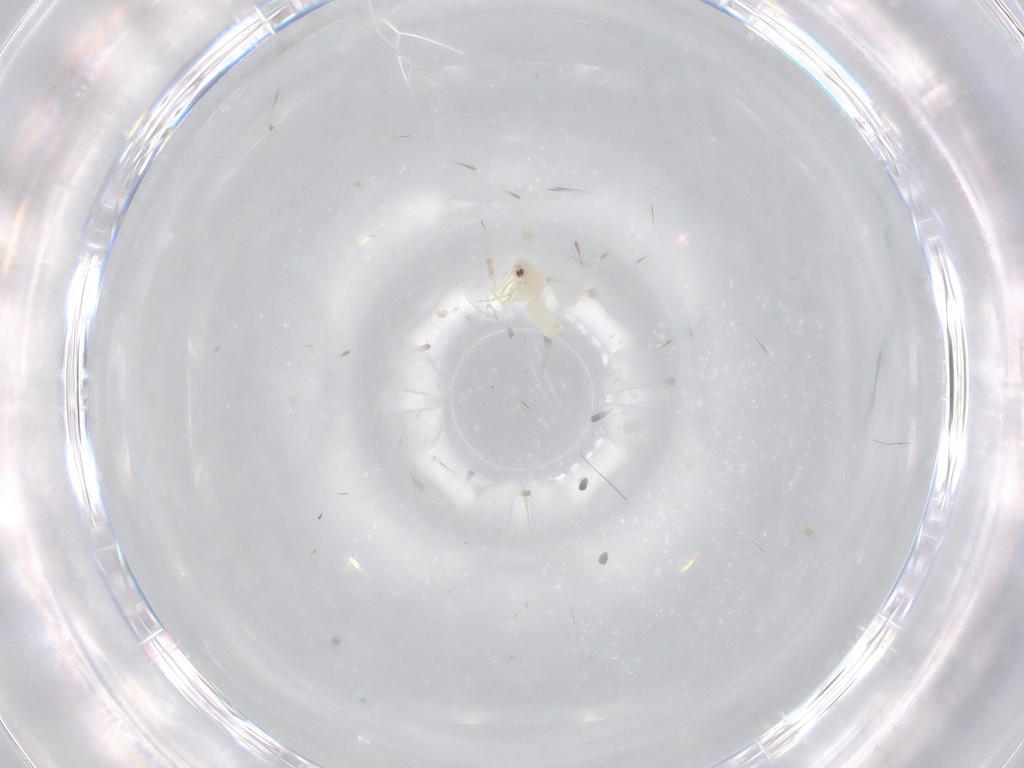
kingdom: Animalia
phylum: Arthropoda
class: Insecta
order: Hemiptera
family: Aleyrodidae
